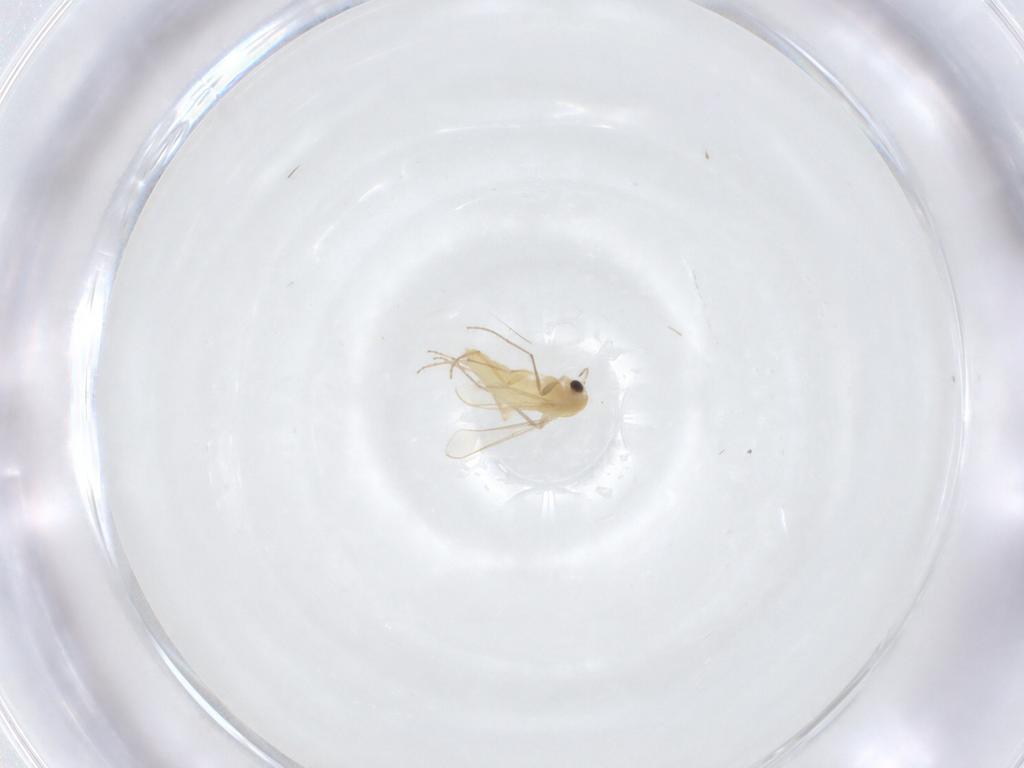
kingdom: Animalia
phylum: Arthropoda
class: Insecta
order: Diptera
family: Chironomidae
